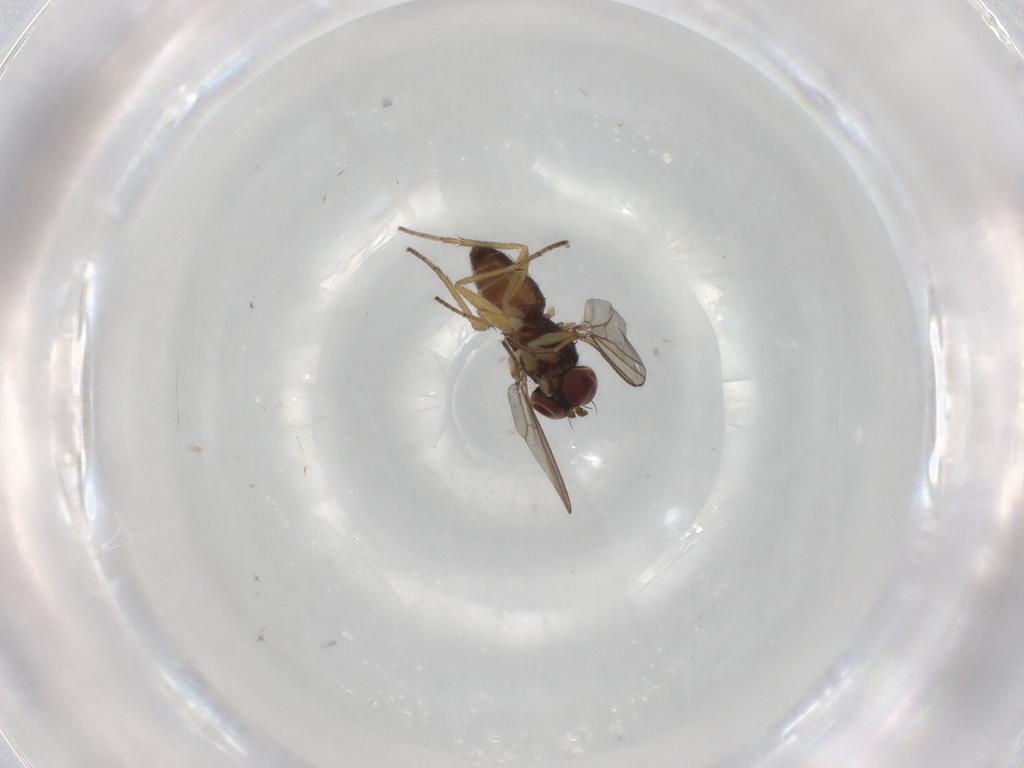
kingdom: Animalia
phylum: Arthropoda
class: Insecta
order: Diptera
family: Dolichopodidae
